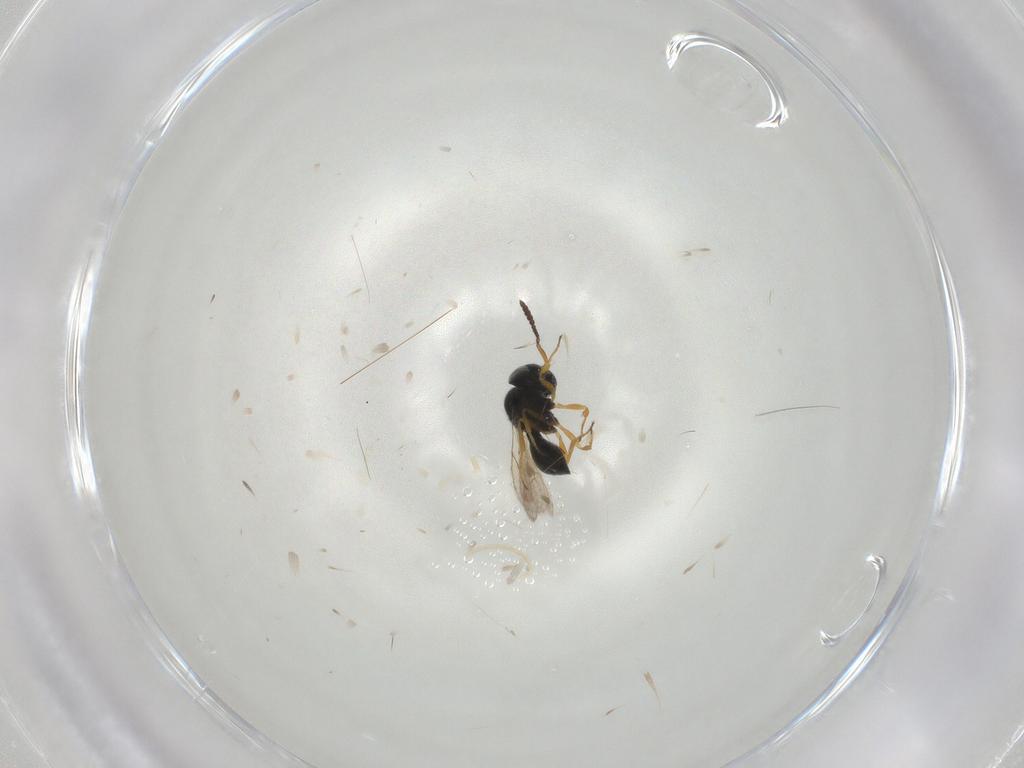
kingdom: Animalia
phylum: Arthropoda
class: Insecta
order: Hymenoptera
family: Scelionidae
